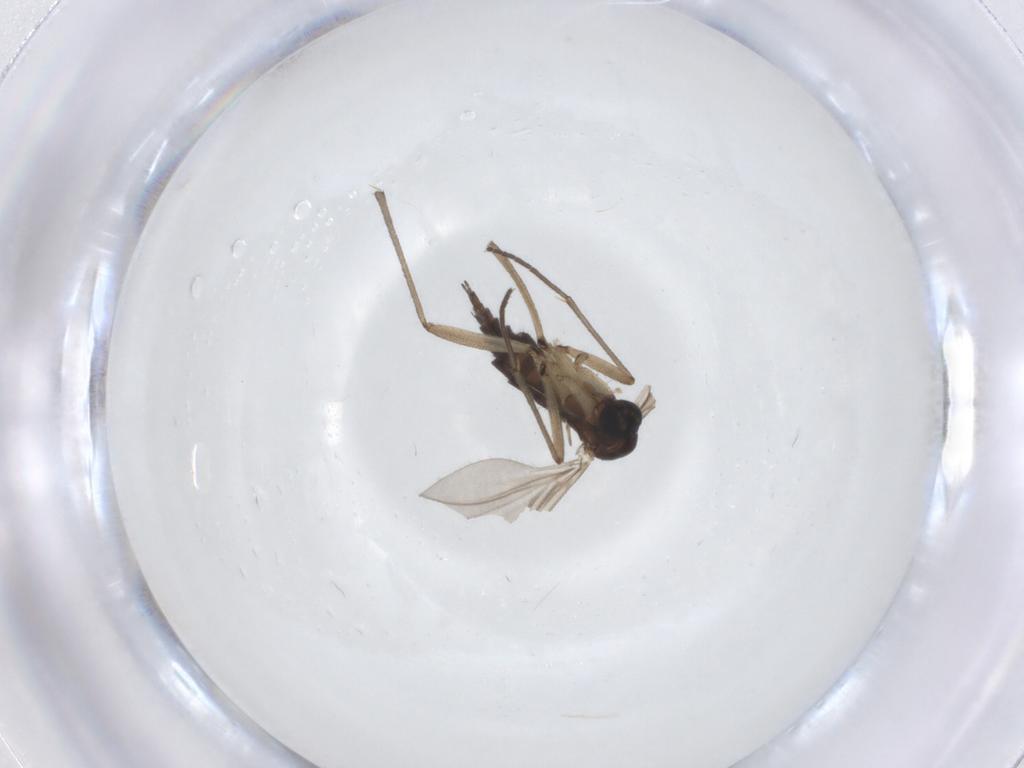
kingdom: Animalia
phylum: Arthropoda
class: Insecta
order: Diptera
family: Sciaridae
